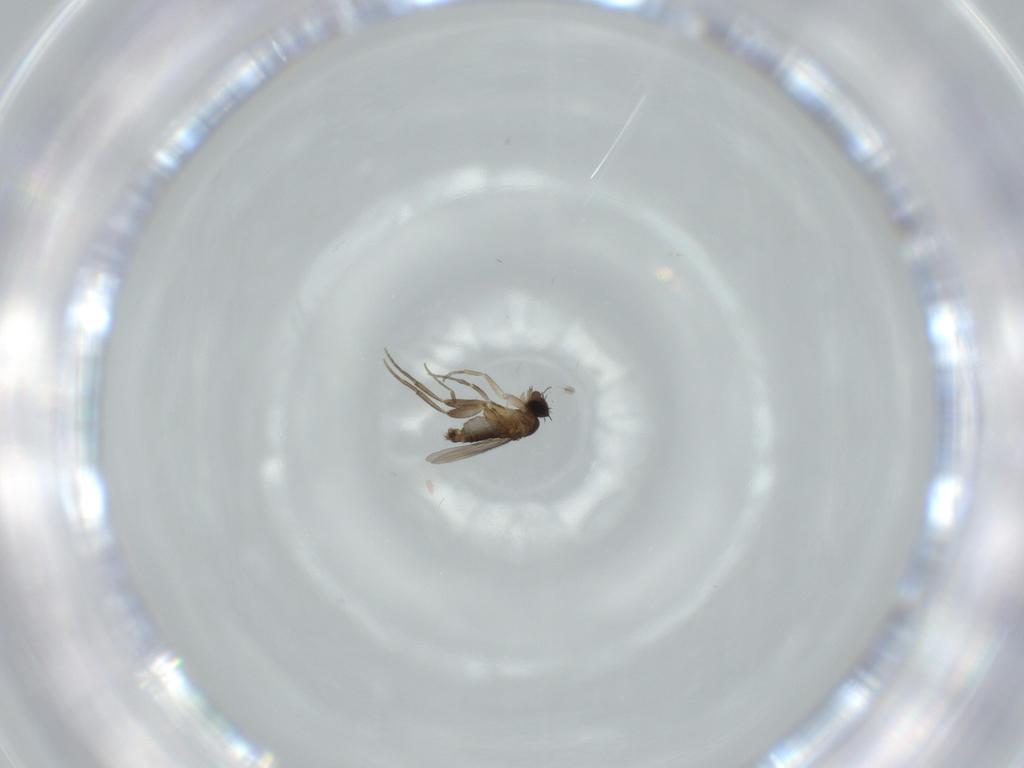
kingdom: Animalia
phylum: Arthropoda
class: Insecta
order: Diptera
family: Phoridae
